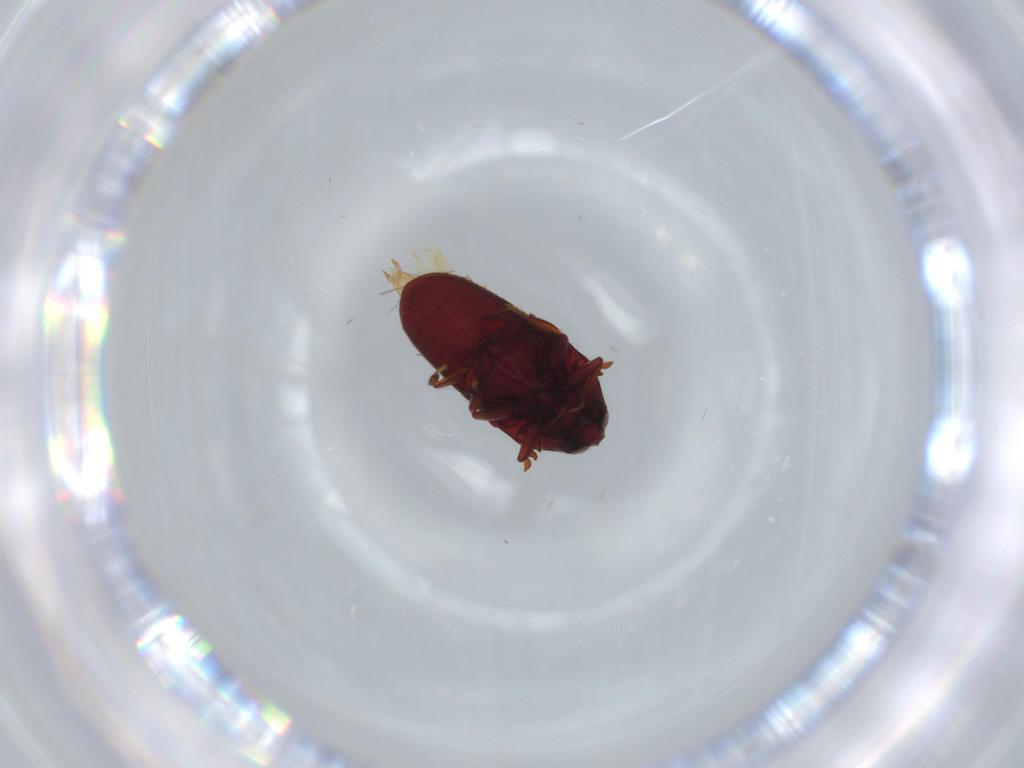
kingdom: Animalia
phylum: Arthropoda
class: Insecta
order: Coleoptera
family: Throscidae
